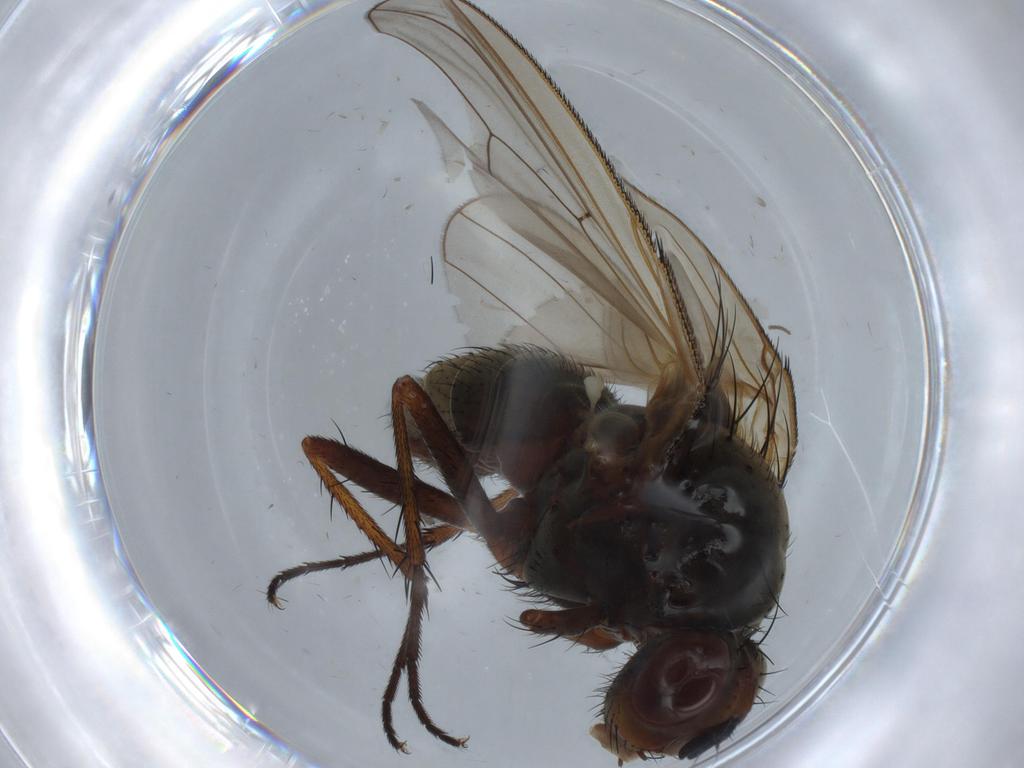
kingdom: Animalia
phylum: Arthropoda
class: Insecta
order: Diptera
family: Anthomyiidae
